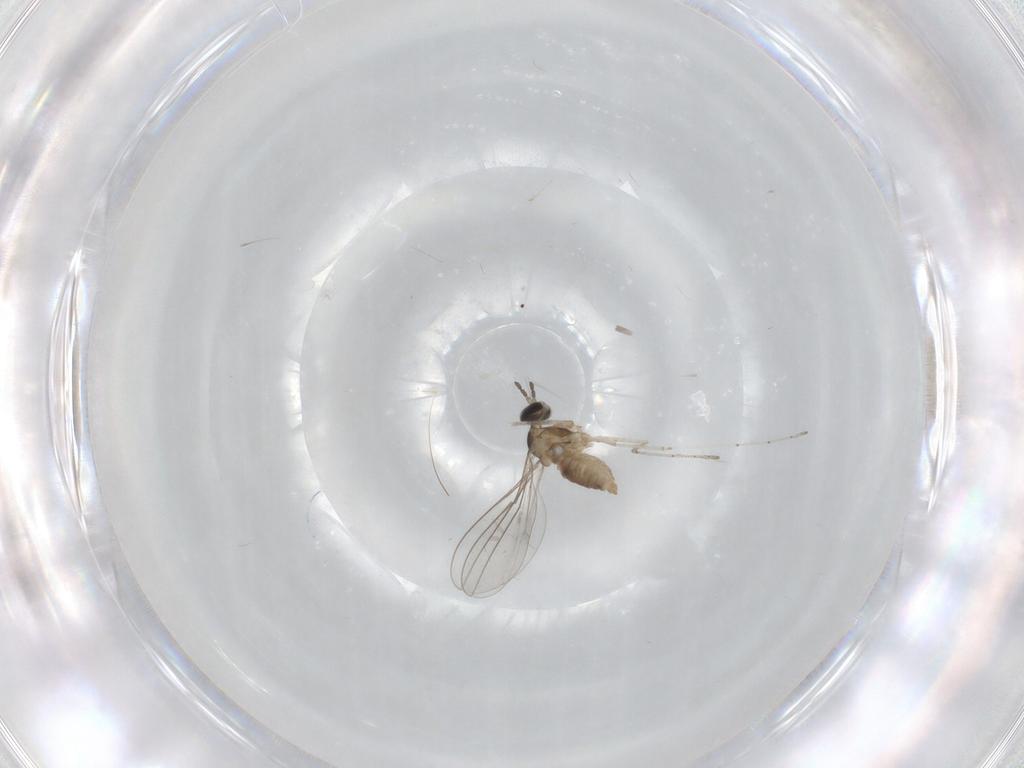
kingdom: Animalia
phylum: Arthropoda
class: Insecta
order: Diptera
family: Cecidomyiidae
